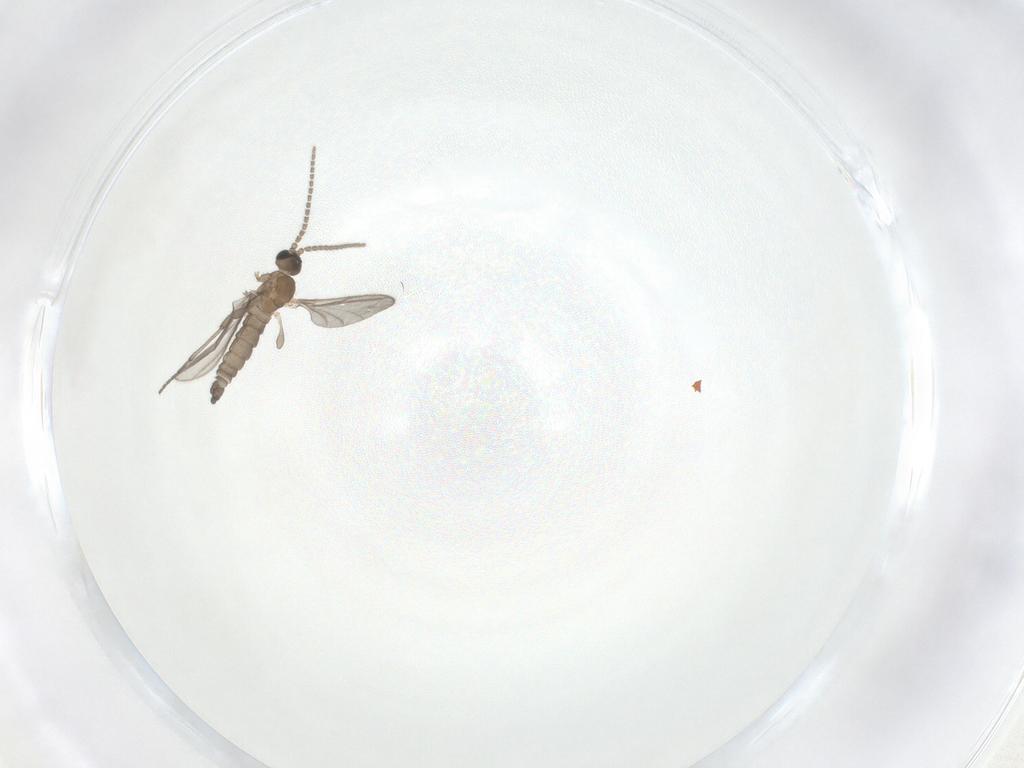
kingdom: Animalia
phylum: Arthropoda
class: Insecta
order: Diptera
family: Sciaridae
